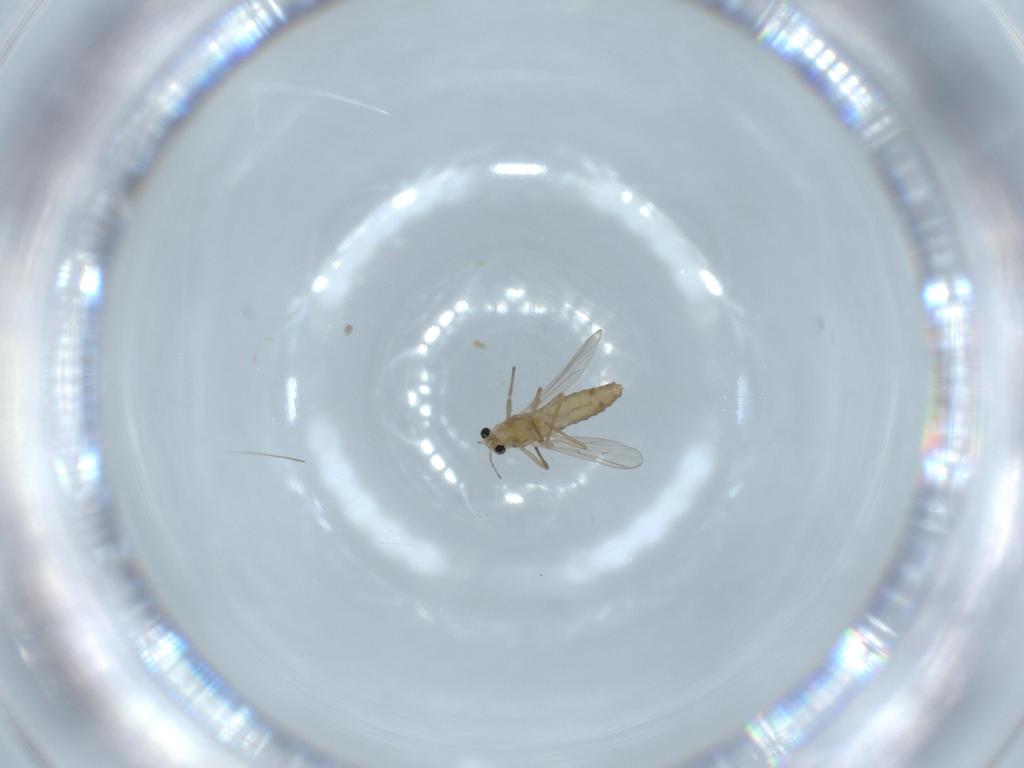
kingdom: Animalia
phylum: Arthropoda
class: Insecta
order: Diptera
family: Chironomidae
